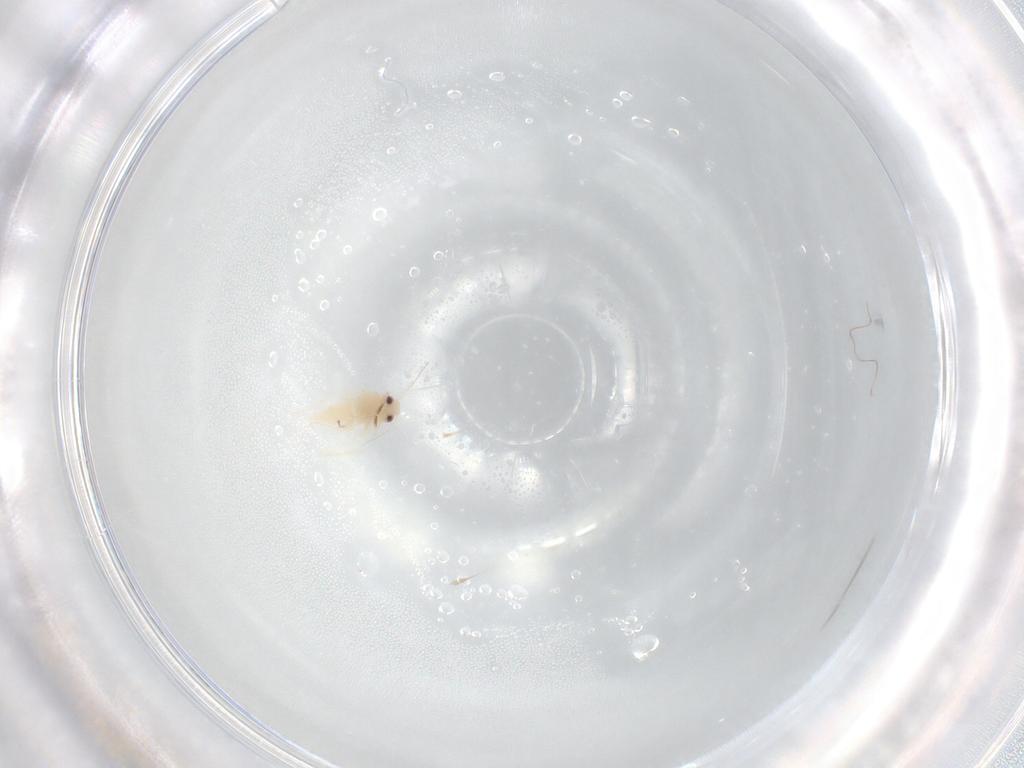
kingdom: Animalia
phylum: Arthropoda
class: Insecta
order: Hemiptera
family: Aleyrodidae
